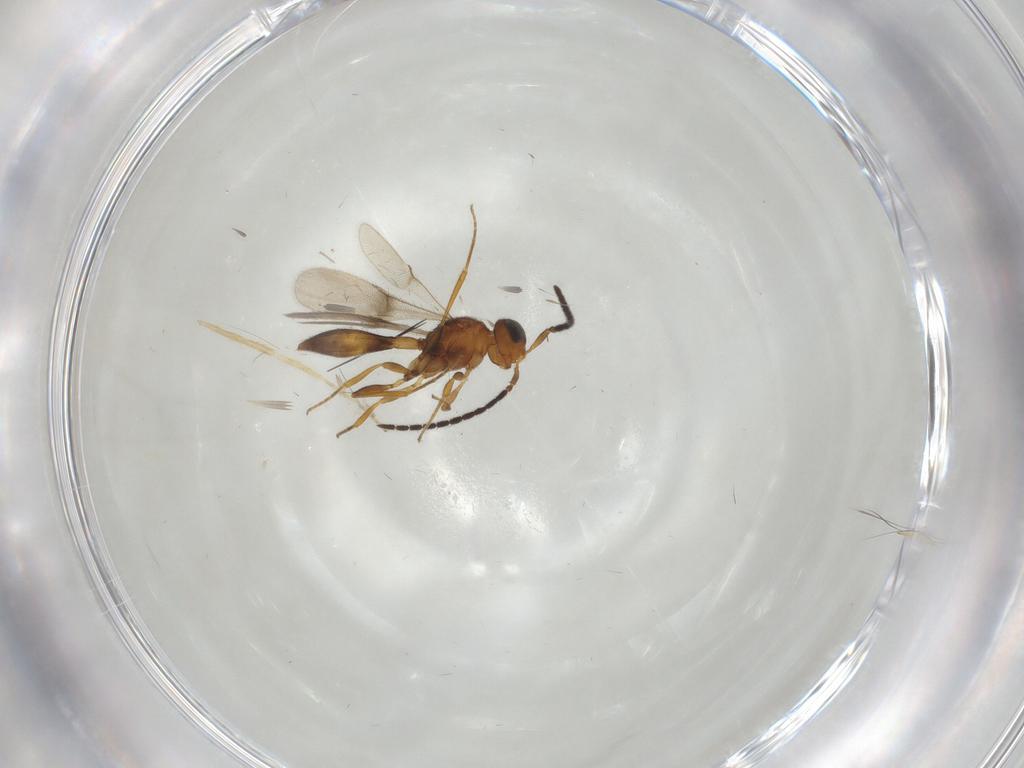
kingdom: Animalia
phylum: Arthropoda
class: Insecta
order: Hymenoptera
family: Scelionidae
